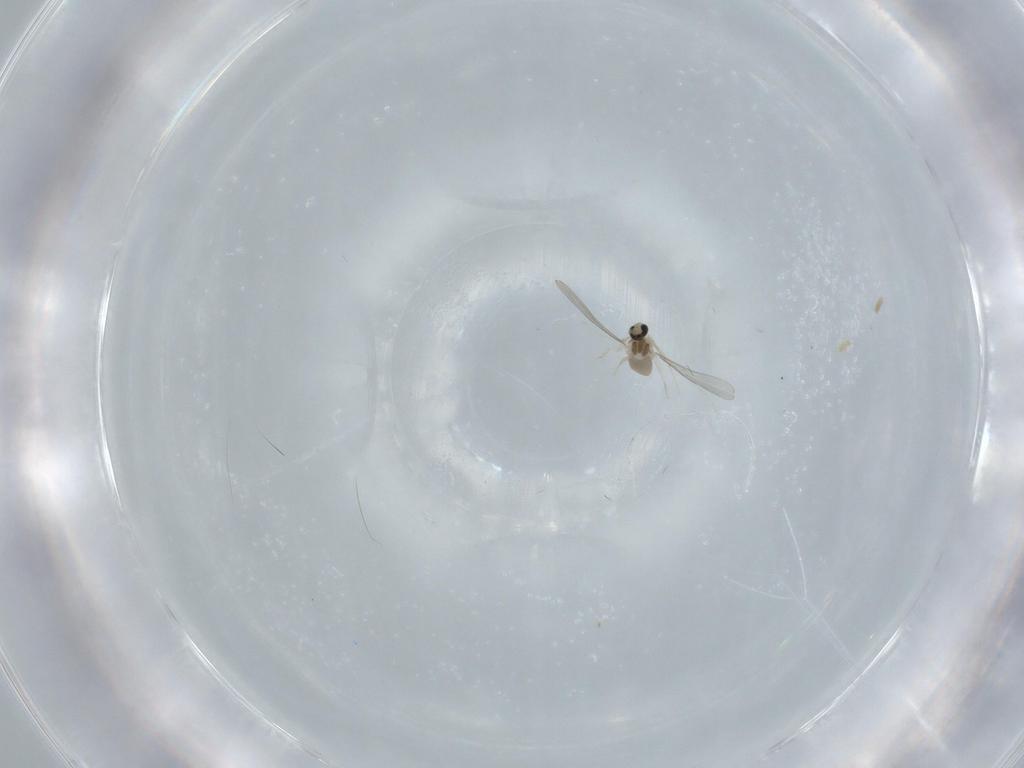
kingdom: Animalia
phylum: Arthropoda
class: Insecta
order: Diptera
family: Cecidomyiidae
